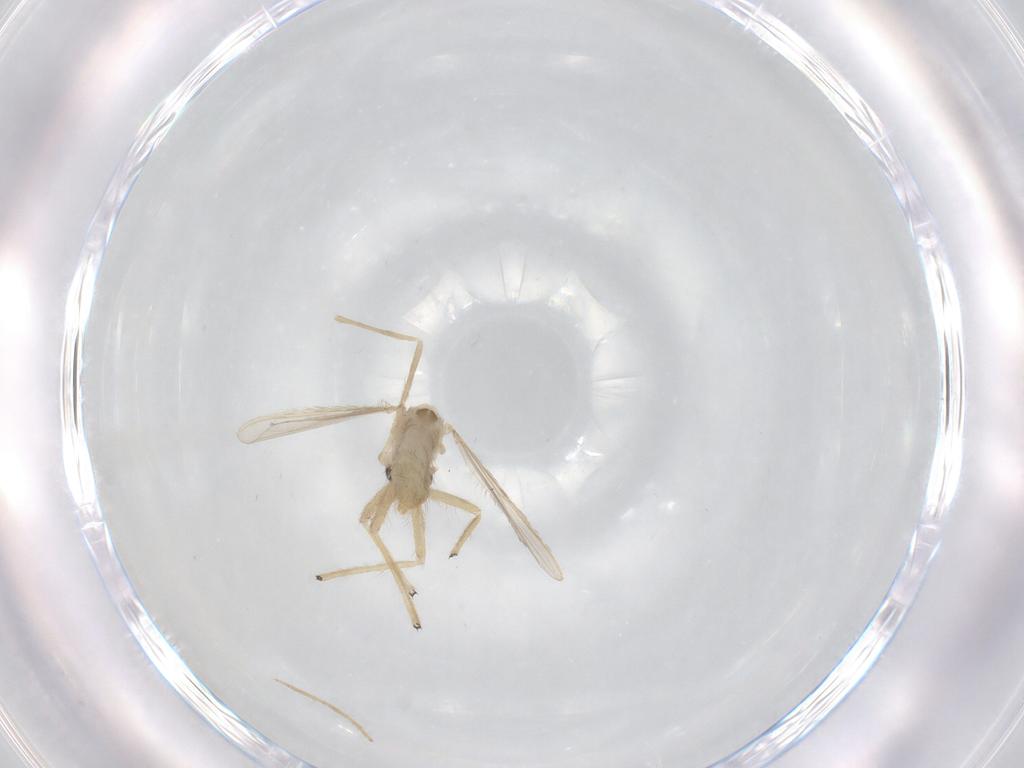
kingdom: Animalia
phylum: Arthropoda
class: Insecta
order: Diptera
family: Chironomidae
